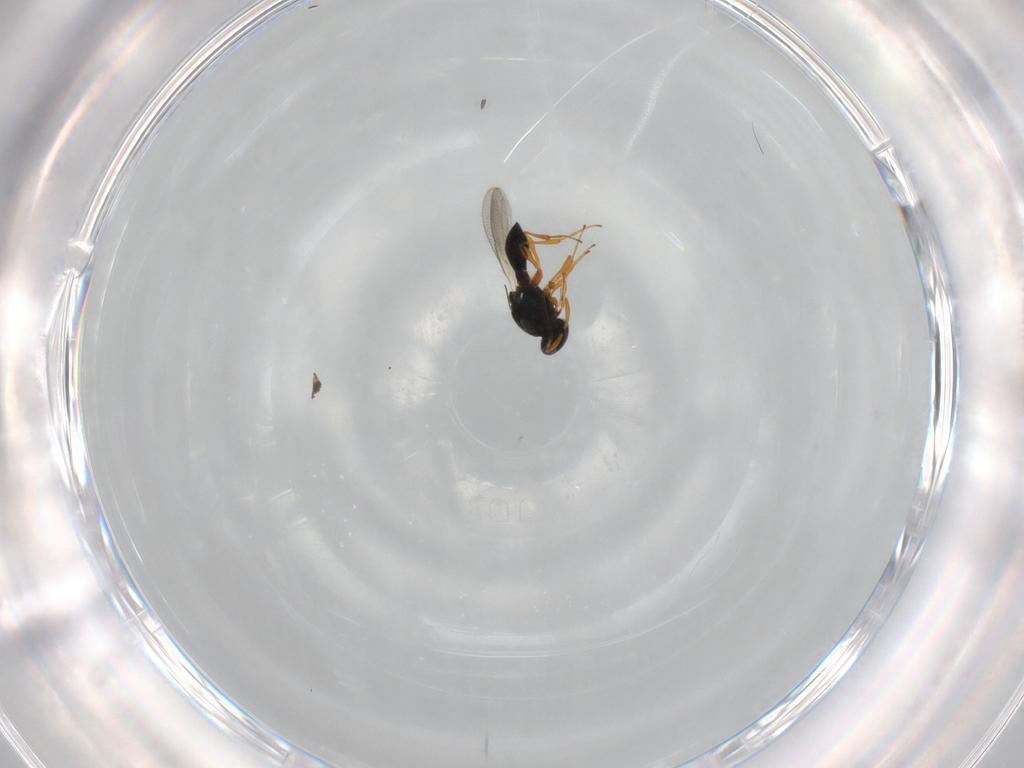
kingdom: Animalia
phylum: Arthropoda
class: Insecta
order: Hymenoptera
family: Platygastridae
